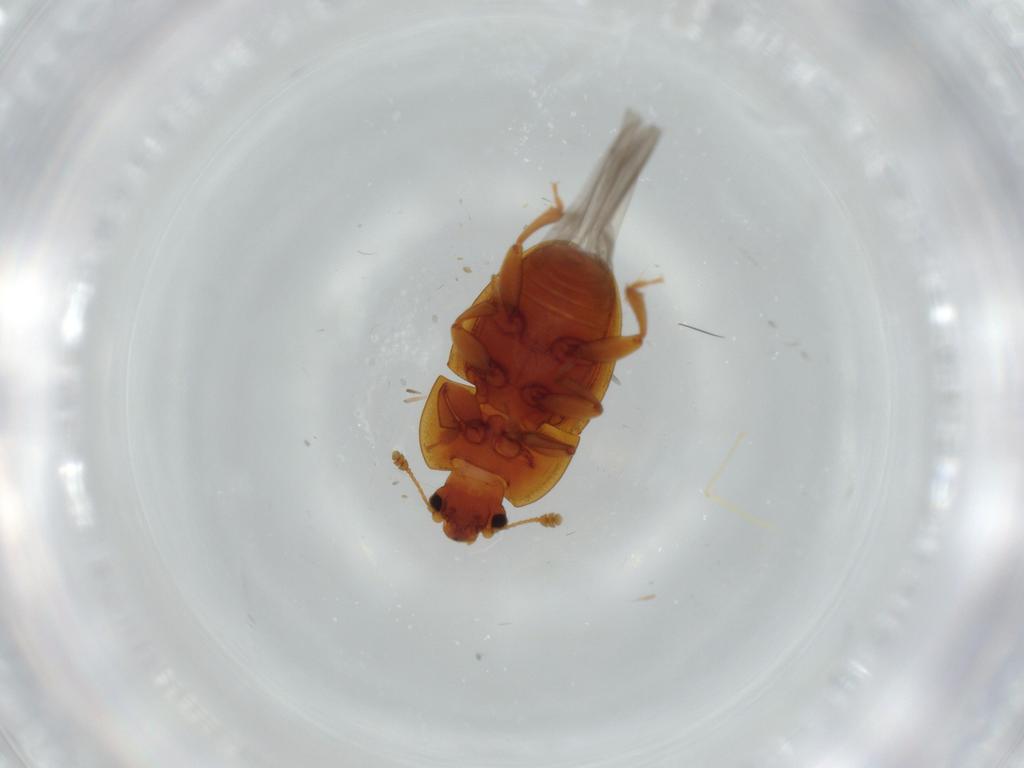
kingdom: Animalia
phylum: Arthropoda
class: Insecta
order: Coleoptera
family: Nitidulidae
